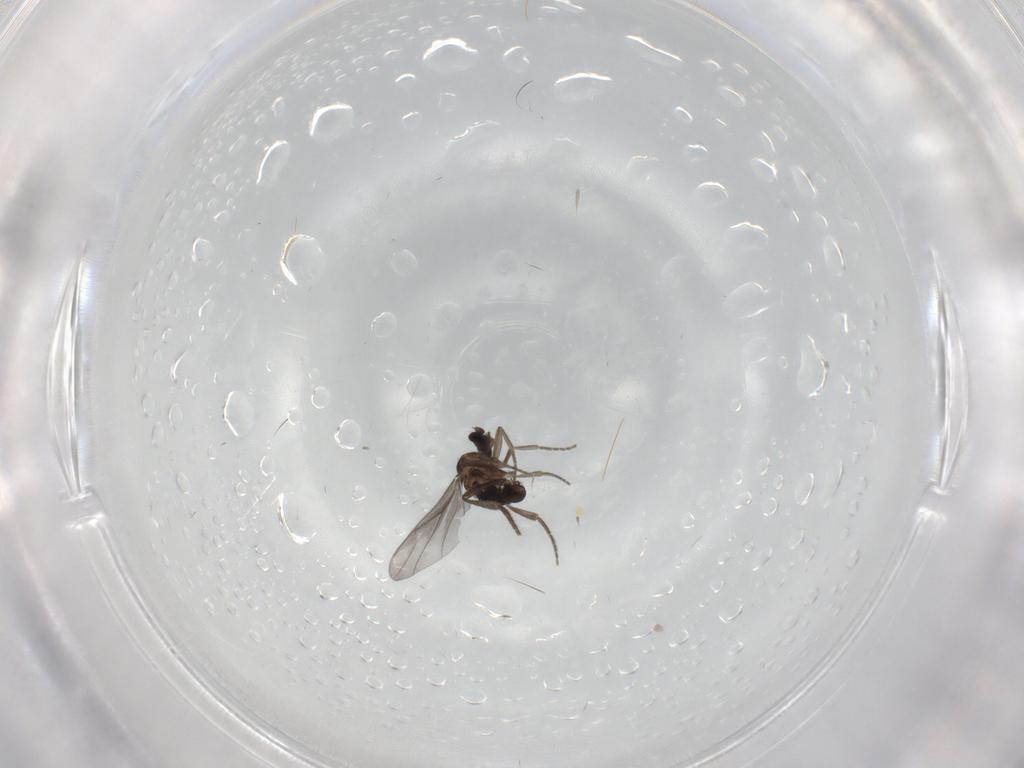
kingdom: Animalia
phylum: Arthropoda
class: Insecta
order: Diptera
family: Cecidomyiidae
